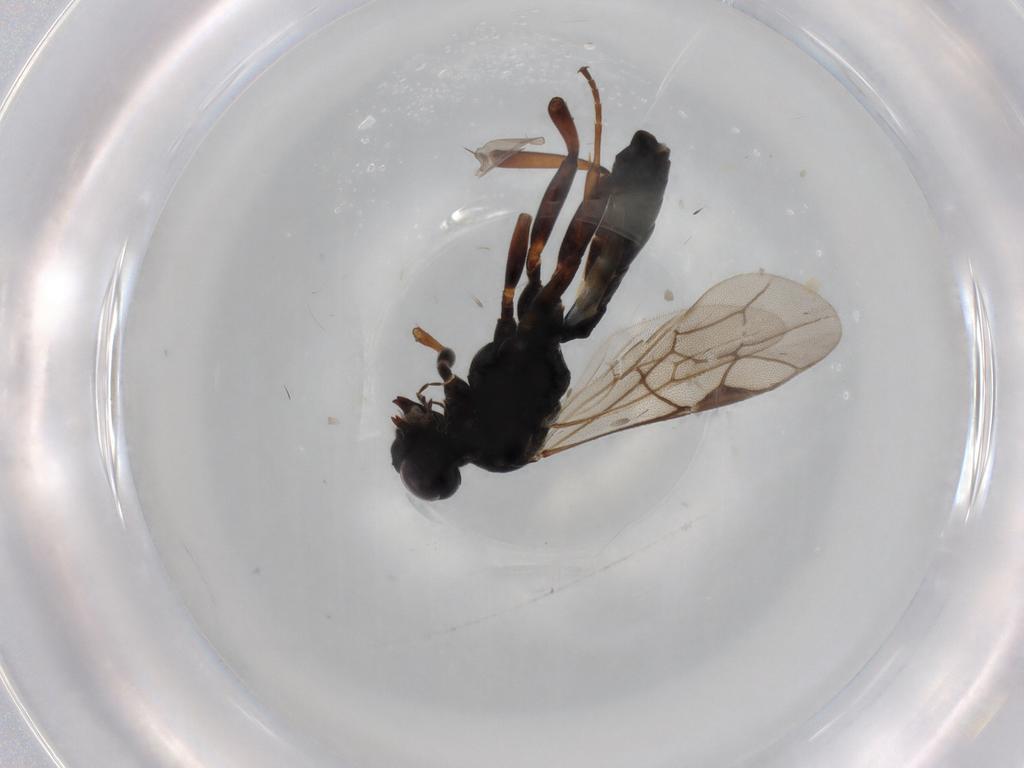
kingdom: Animalia
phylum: Arthropoda
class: Insecta
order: Hymenoptera
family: Ichneumonidae
